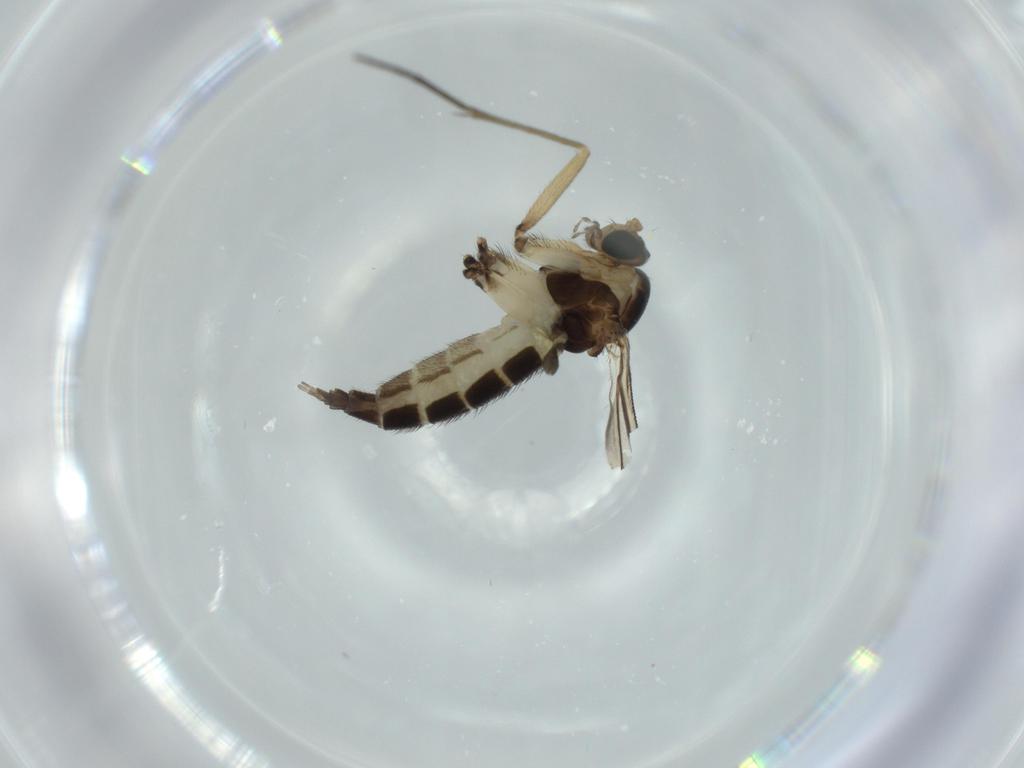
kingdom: Animalia
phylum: Arthropoda
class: Insecta
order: Diptera
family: Sciaridae
